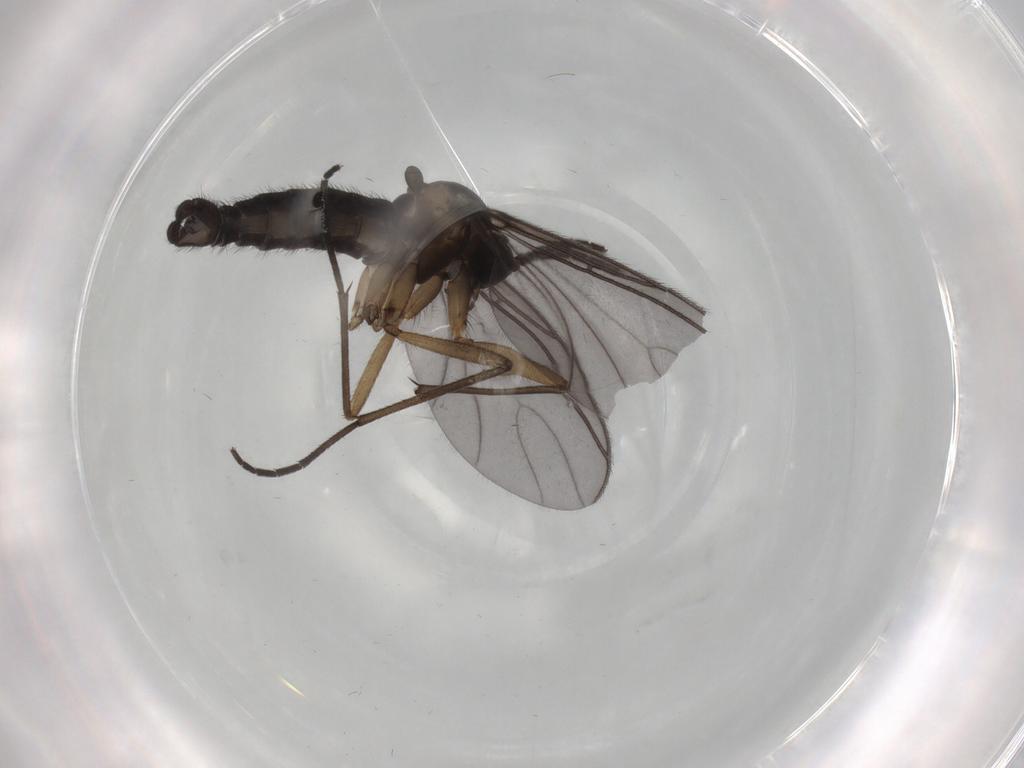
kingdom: Animalia
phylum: Arthropoda
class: Insecta
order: Diptera
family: Sciaridae
